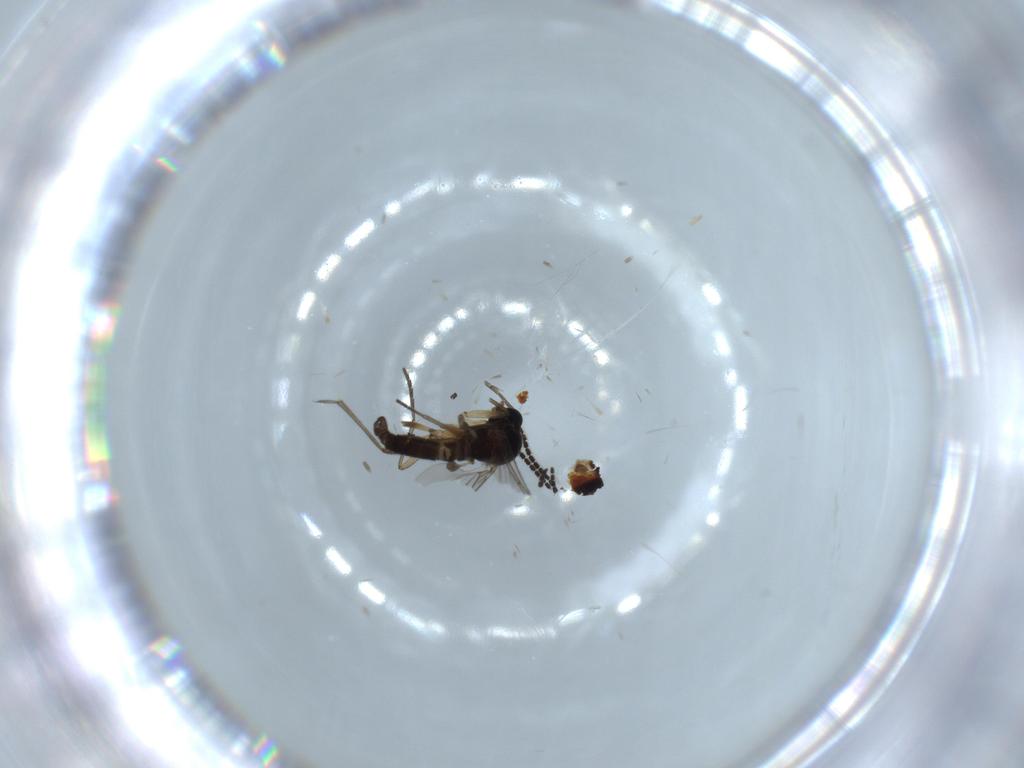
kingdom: Animalia
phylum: Arthropoda
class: Insecta
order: Diptera
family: Sciaridae
